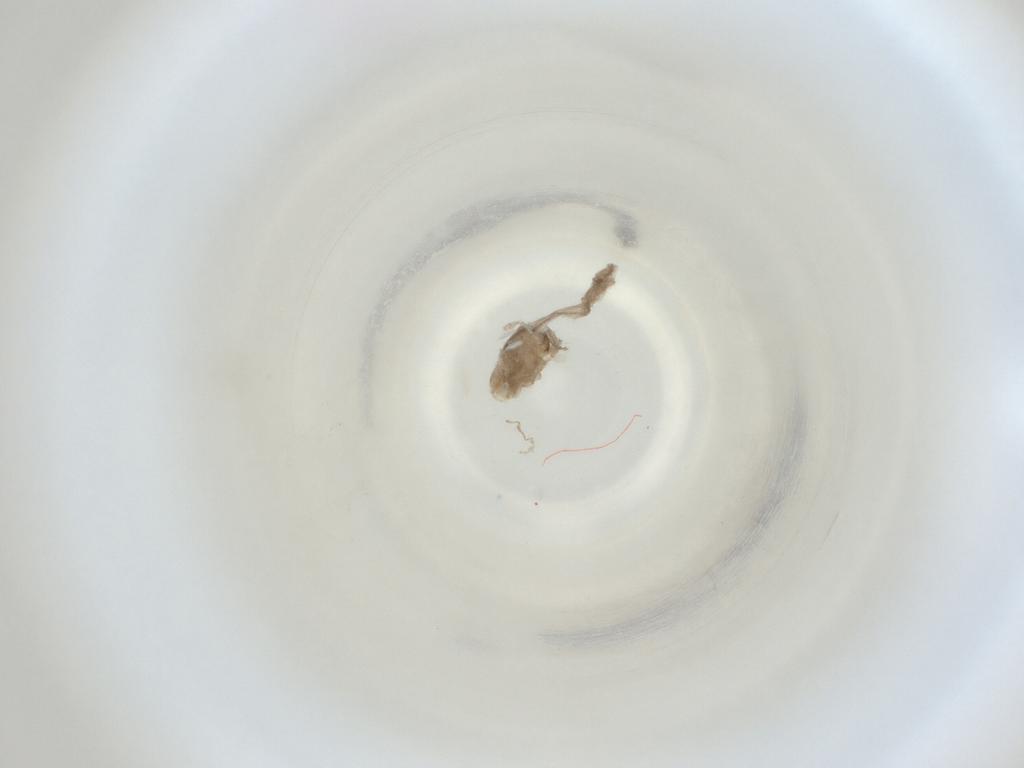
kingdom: Animalia
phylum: Arthropoda
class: Insecta
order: Diptera
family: Cecidomyiidae
